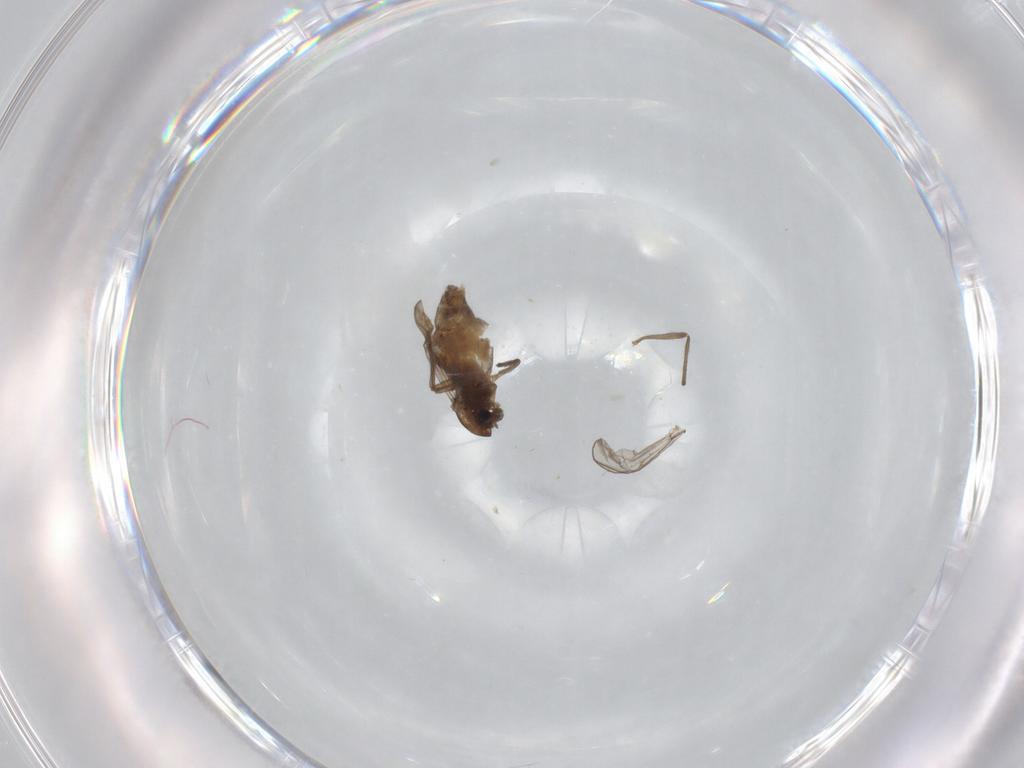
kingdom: Animalia
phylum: Arthropoda
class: Insecta
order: Diptera
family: Chironomidae
